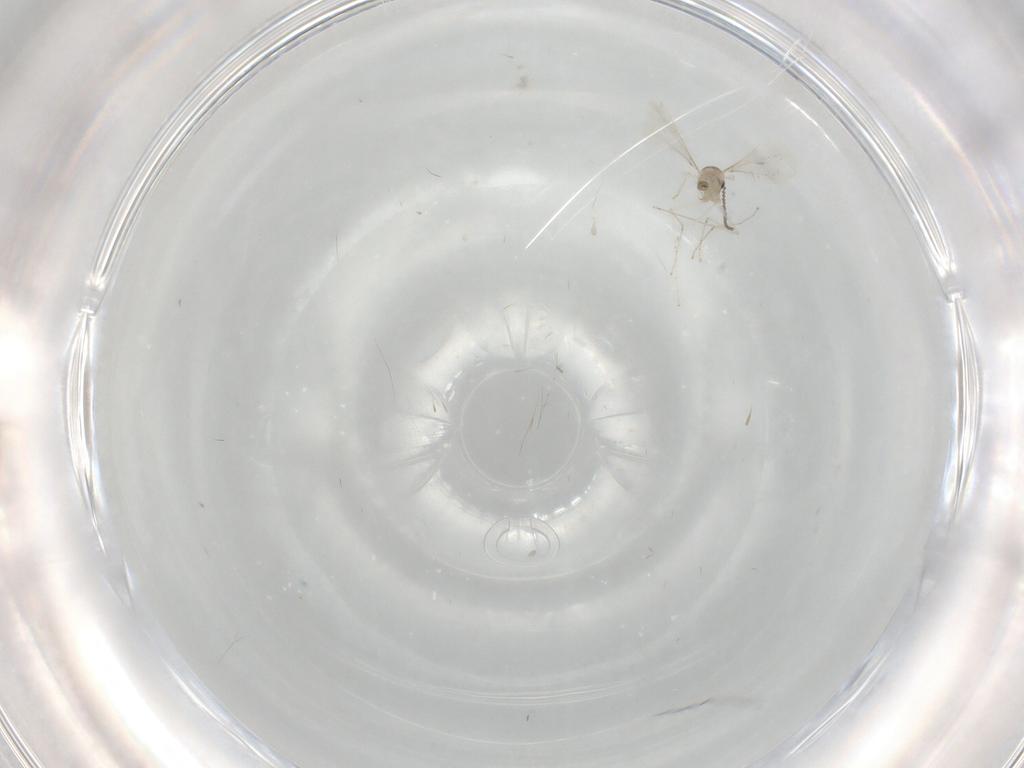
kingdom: Animalia
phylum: Arthropoda
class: Insecta
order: Diptera
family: Cecidomyiidae
